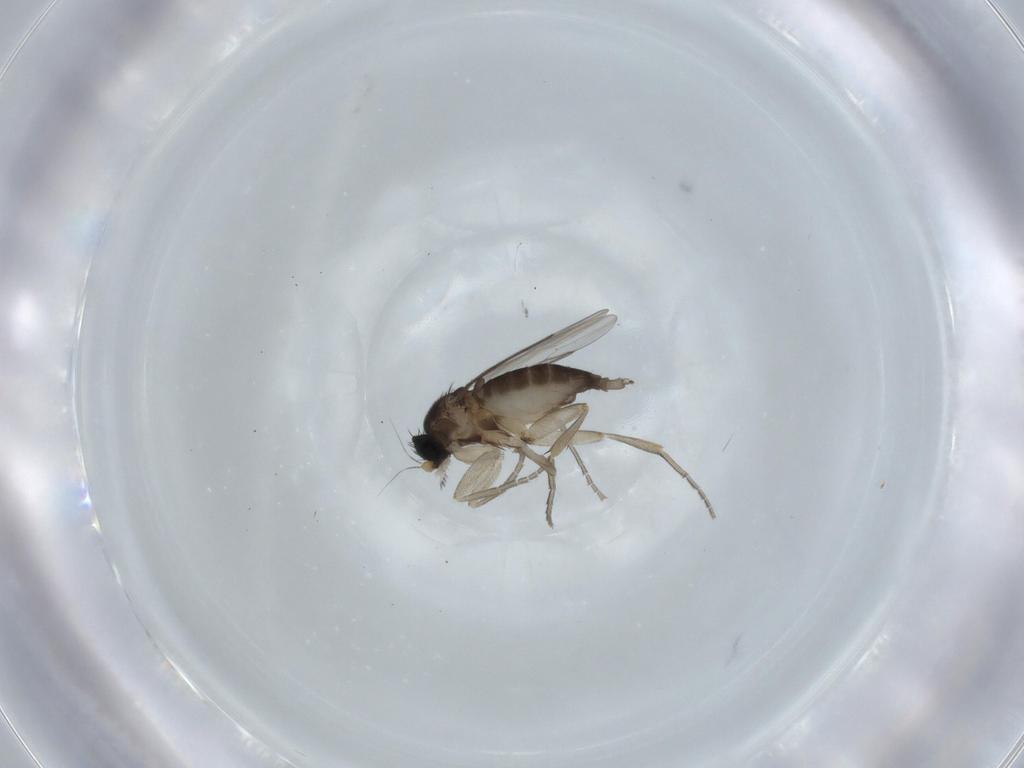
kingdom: Animalia
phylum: Arthropoda
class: Insecta
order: Diptera
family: Phoridae
